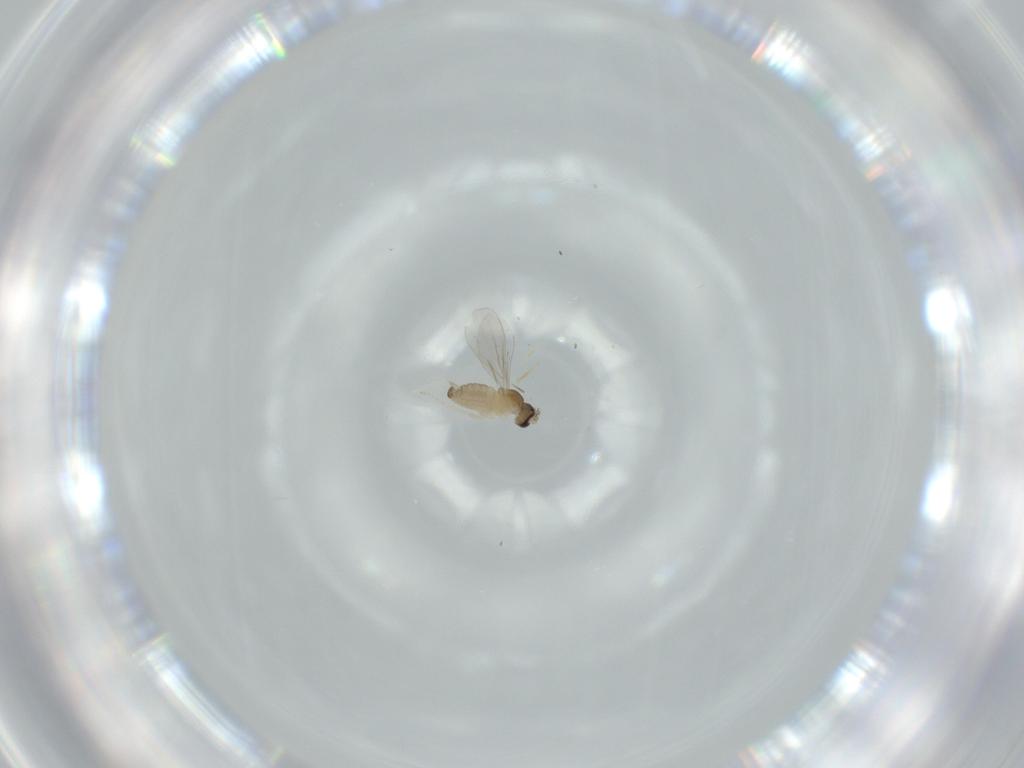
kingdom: Animalia
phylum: Arthropoda
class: Insecta
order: Diptera
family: Cecidomyiidae
